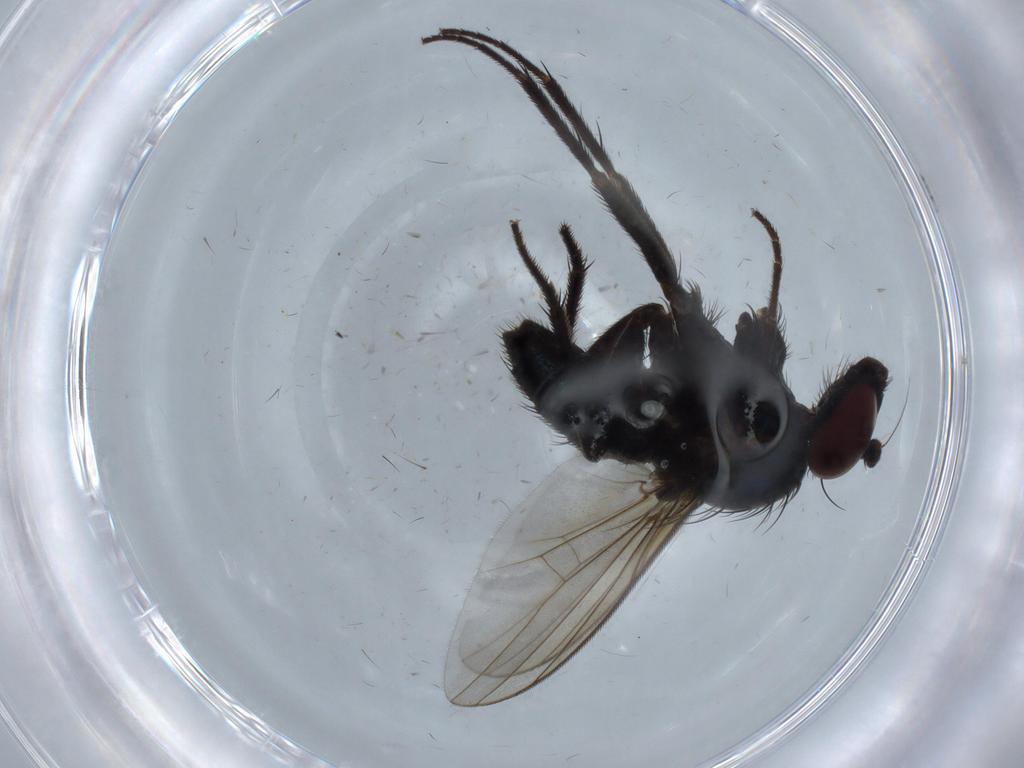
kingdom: Animalia
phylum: Arthropoda
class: Insecta
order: Diptera
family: Dolichopodidae
